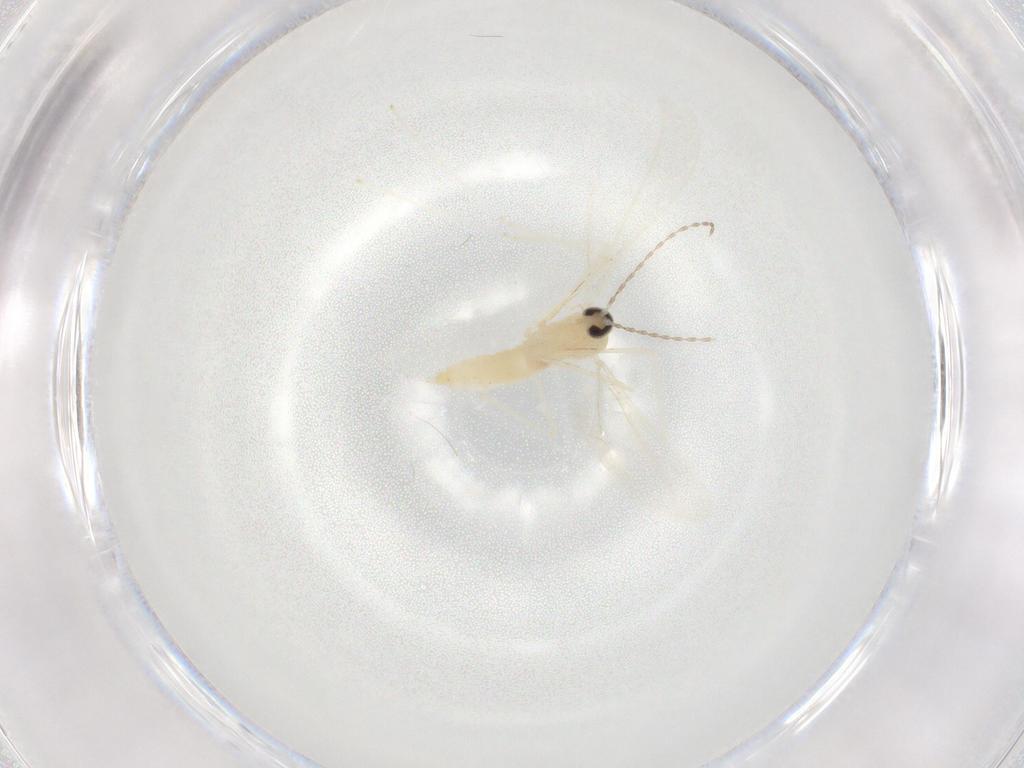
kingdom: Animalia
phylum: Arthropoda
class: Insecta
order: Diptera
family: Cecidomyiidae
